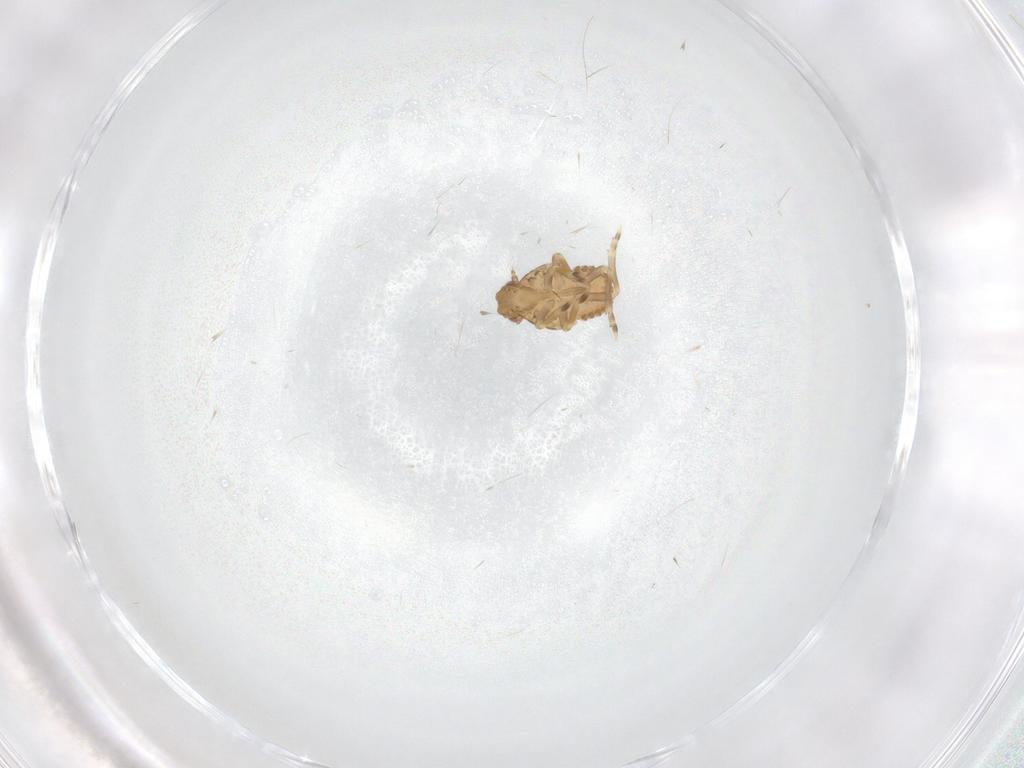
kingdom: Animalia
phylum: Arthropoda
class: Insecta
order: Hemiptera
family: Flatidae
